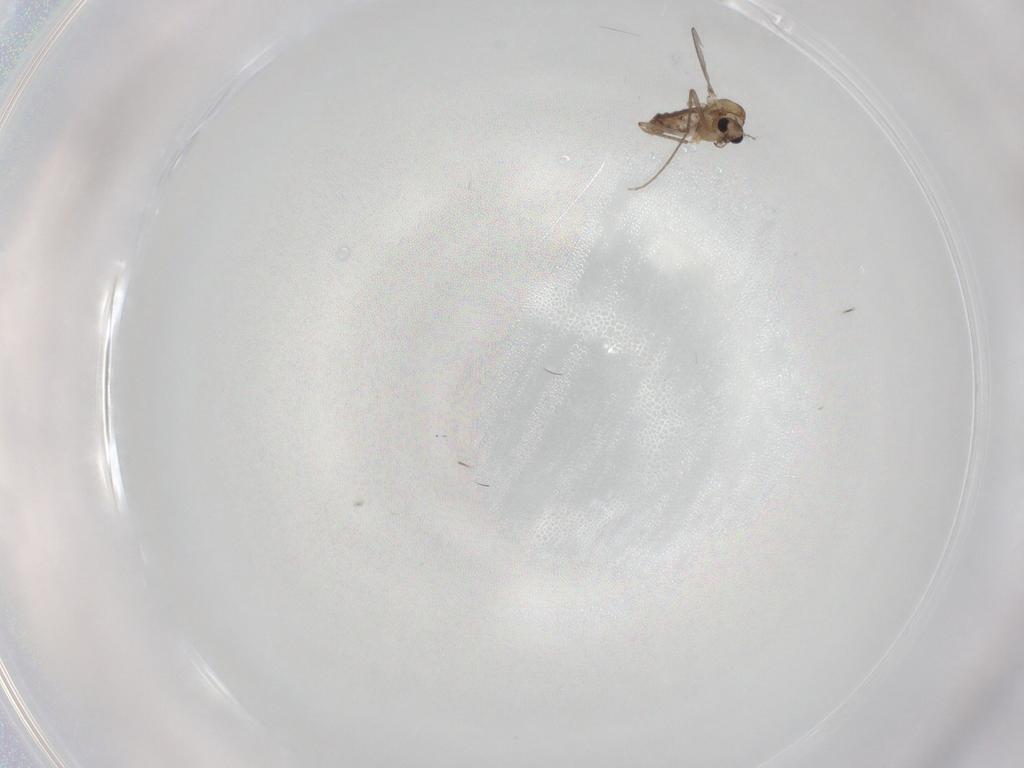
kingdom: Animalia
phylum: Arthropoda
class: Insecta
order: Diptera
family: Chironomidae
